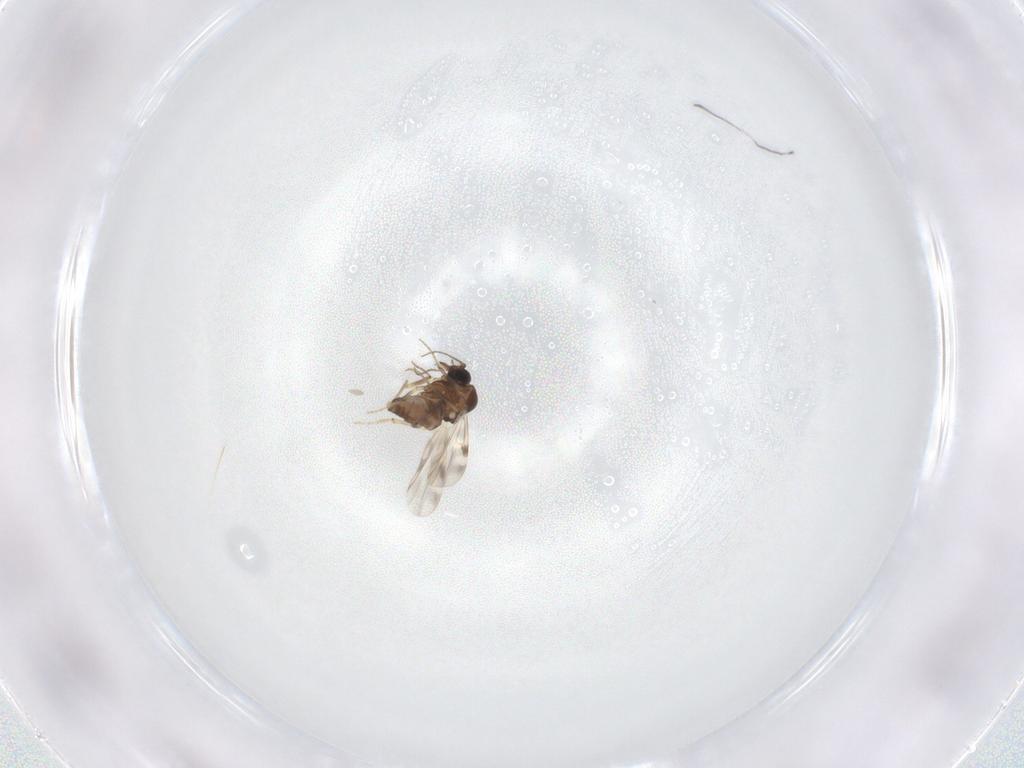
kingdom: Animalia
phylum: Arthropoda
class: Insecta
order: Diptera
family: Ceratopogonidae
